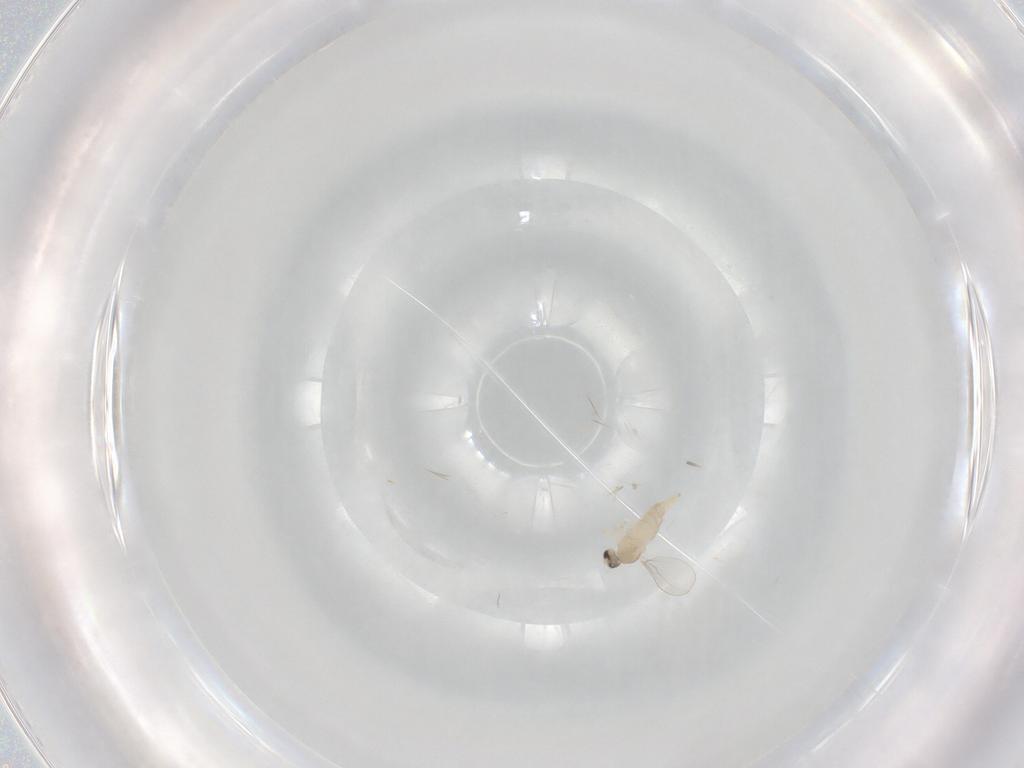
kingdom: Animalia
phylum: Arthropoda
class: Insecta
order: Diptera
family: Cecidomyiidae
